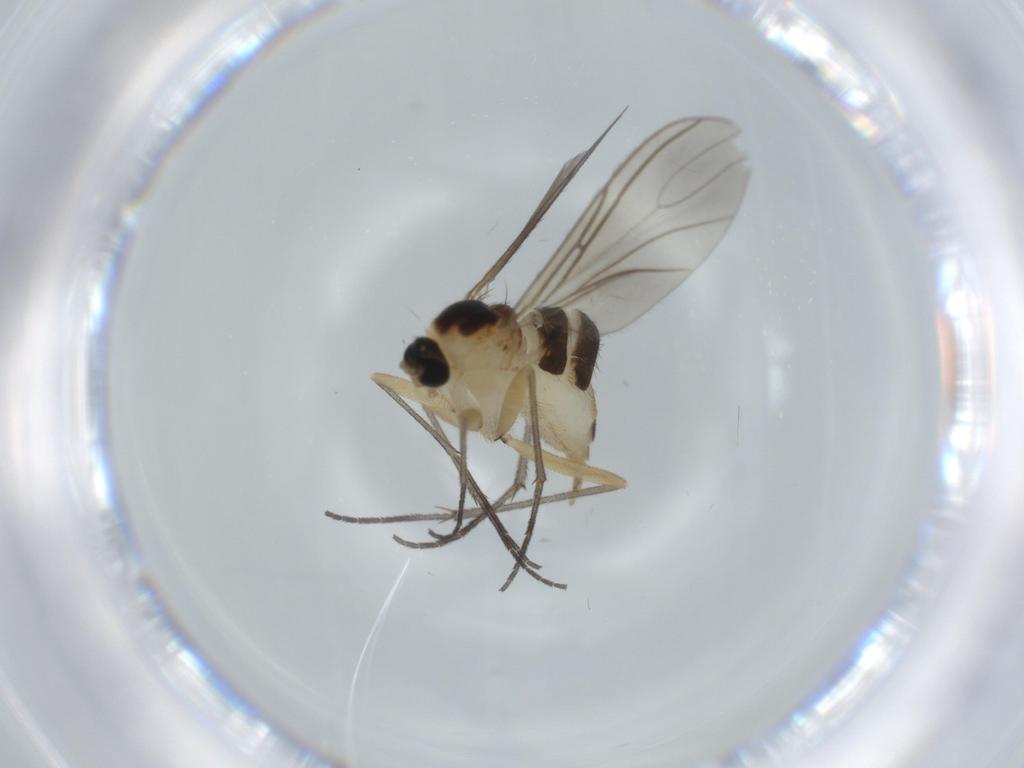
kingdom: Animalia
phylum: Arthropoda
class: Insecta
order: Diptera
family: Sciaridae
